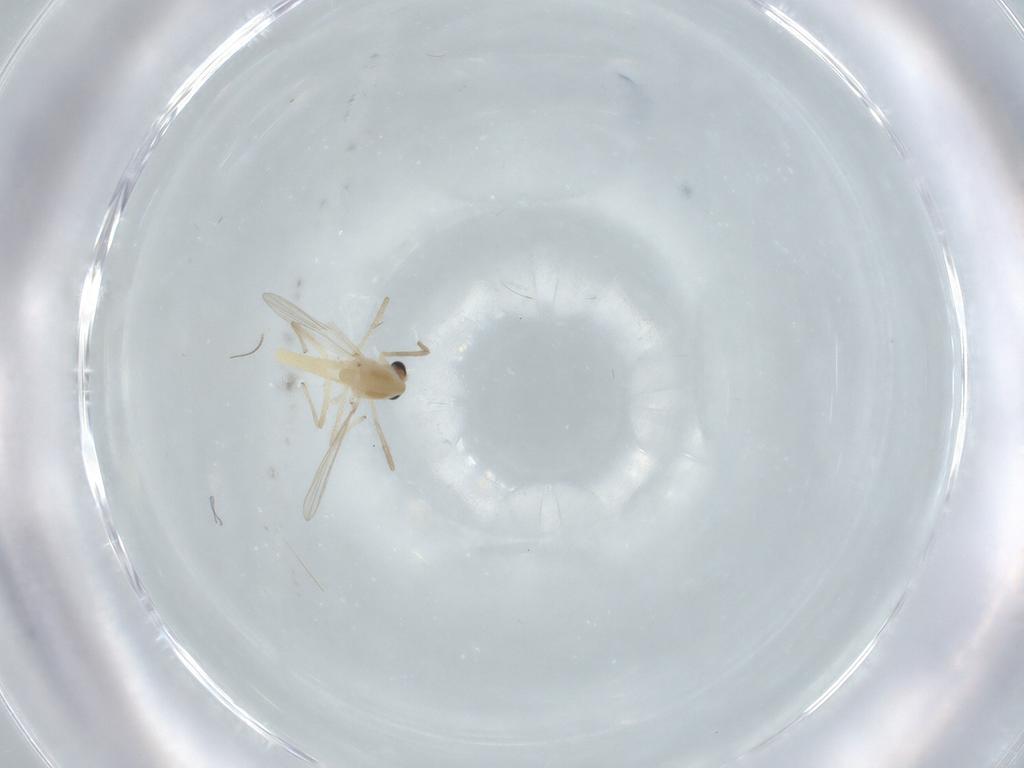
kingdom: Animalia
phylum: Arthropoda
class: Insecta
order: Diptera
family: Chironomidae
